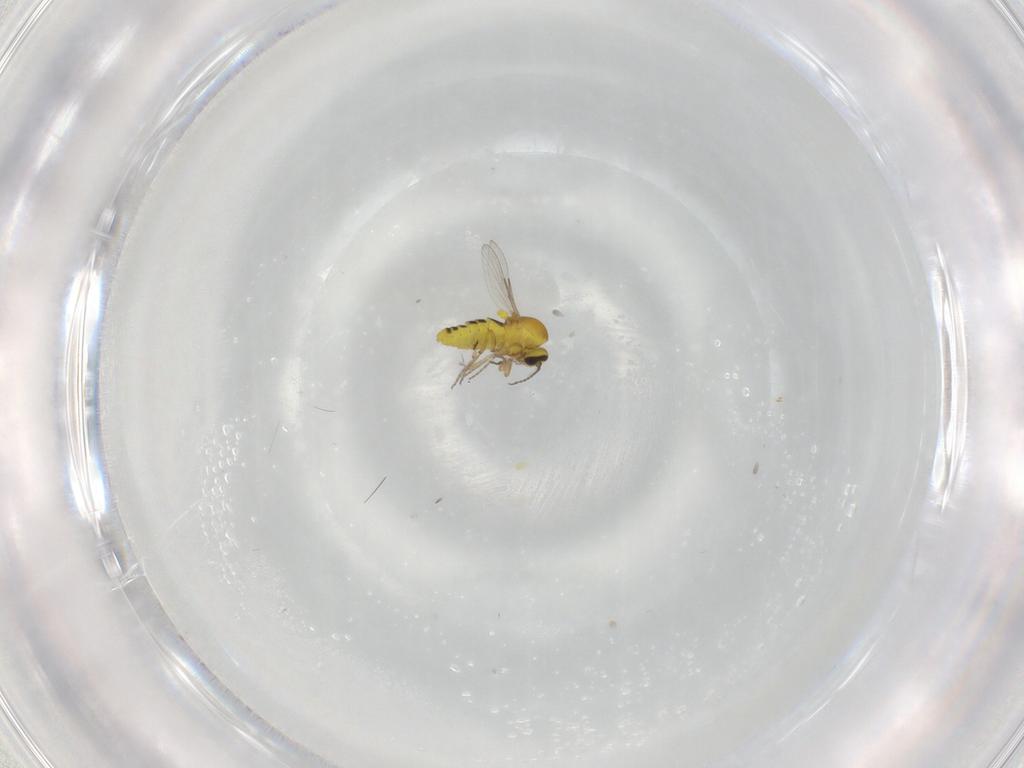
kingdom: Animalia
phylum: Arthropoda
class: Insecta
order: Diptera
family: Ceratopogonidae
